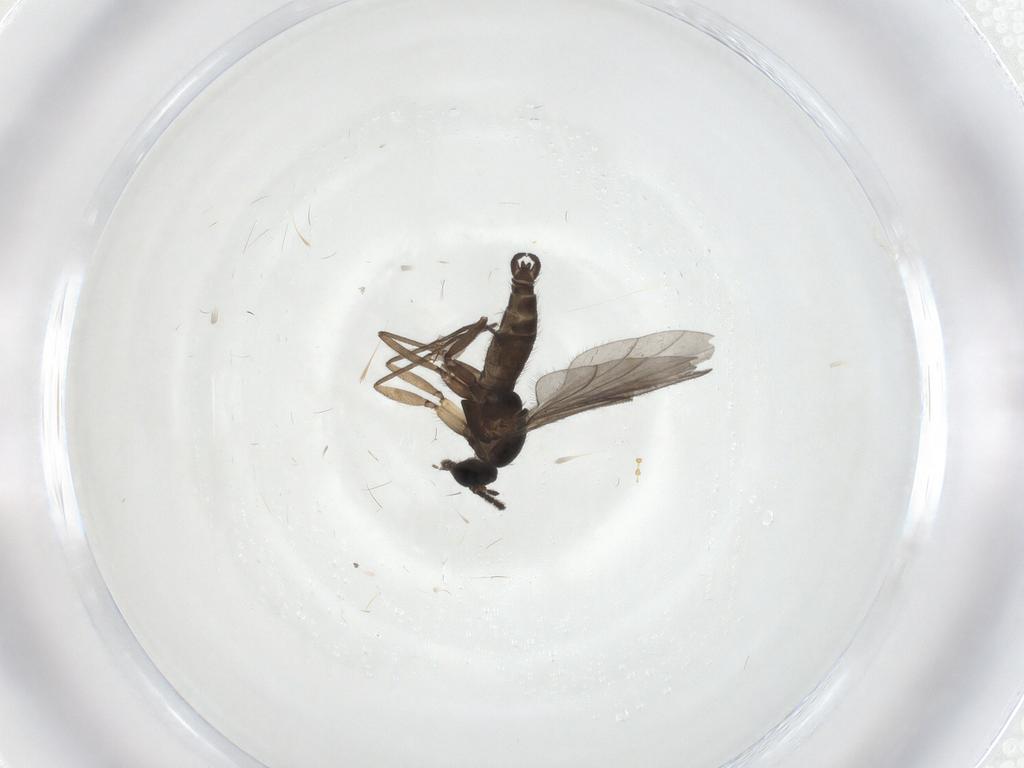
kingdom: Animalia
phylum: Arthropoda
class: Insecta
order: Diptera
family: Sciaridae
